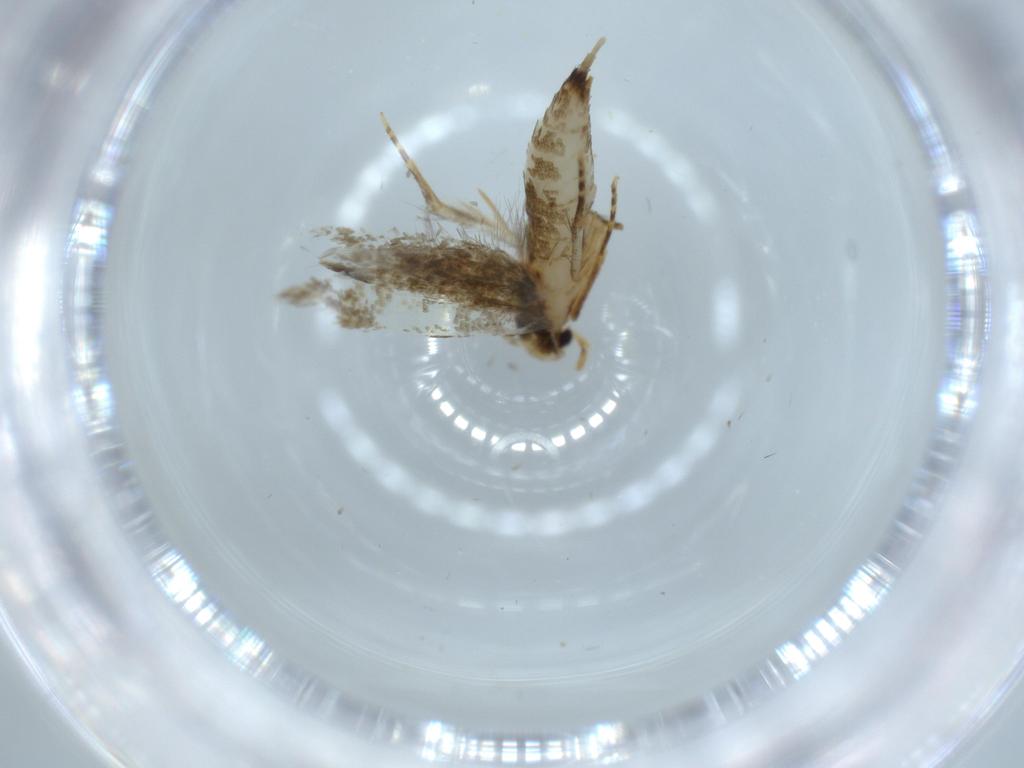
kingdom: Animalia
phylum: Arthropoda
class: Insecta
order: Lepidoptera
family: Tineidae
